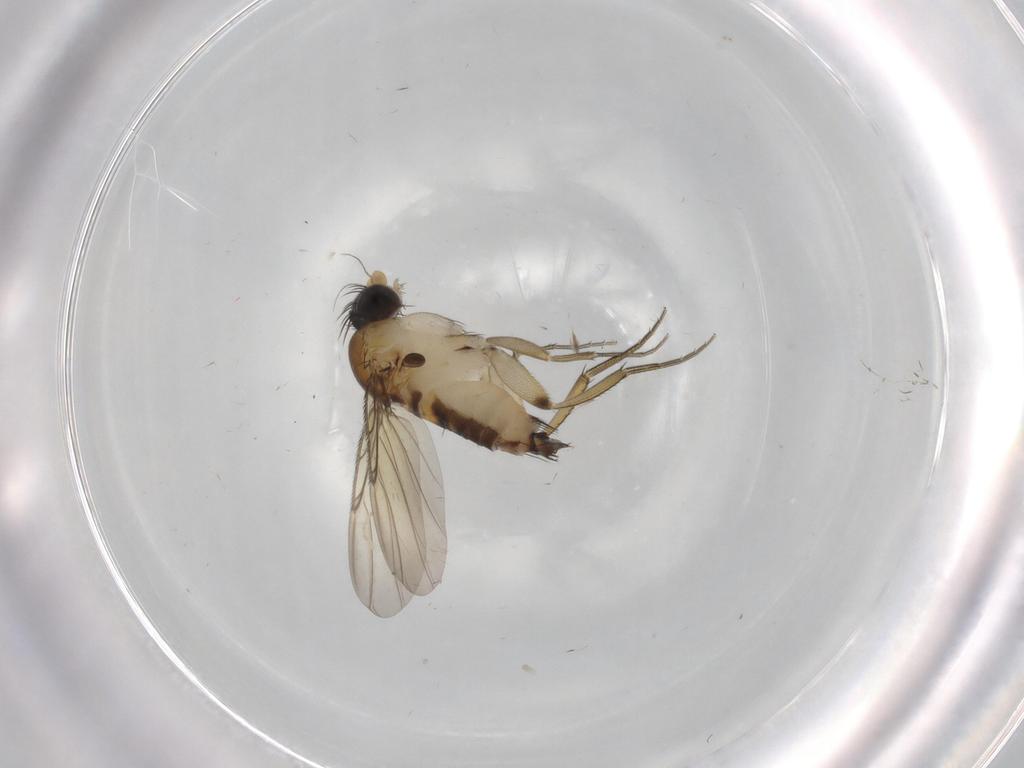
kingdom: Animalia
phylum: Arthropoda
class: Insecta
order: Diptera
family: Phoridae
